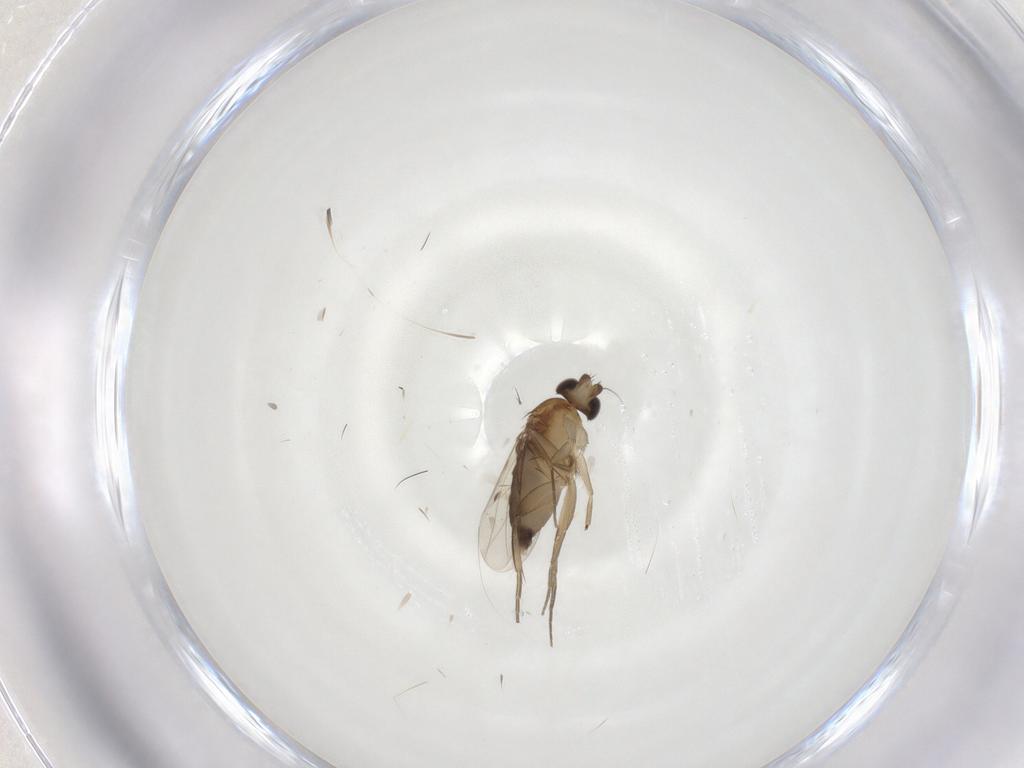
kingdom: Animalia
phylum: Arthropoda
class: Insecta
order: Diptera
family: Phoridae
